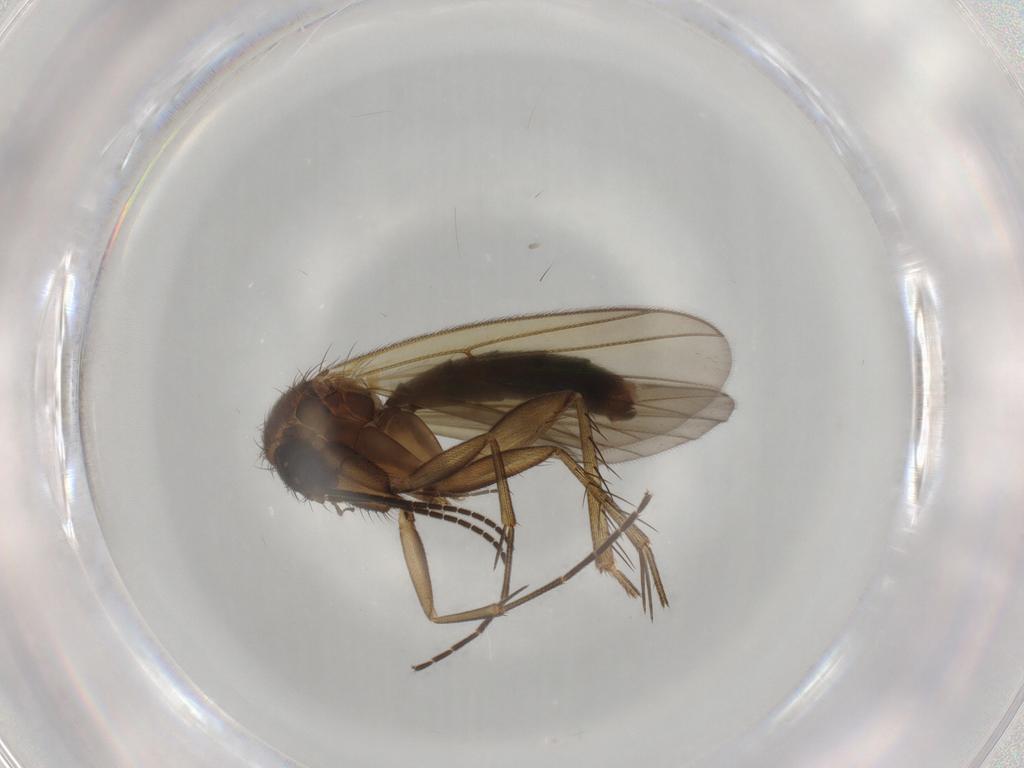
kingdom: Animalia
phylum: Arthropoda
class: Insecta
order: Diptera
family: Mycetophilidae
